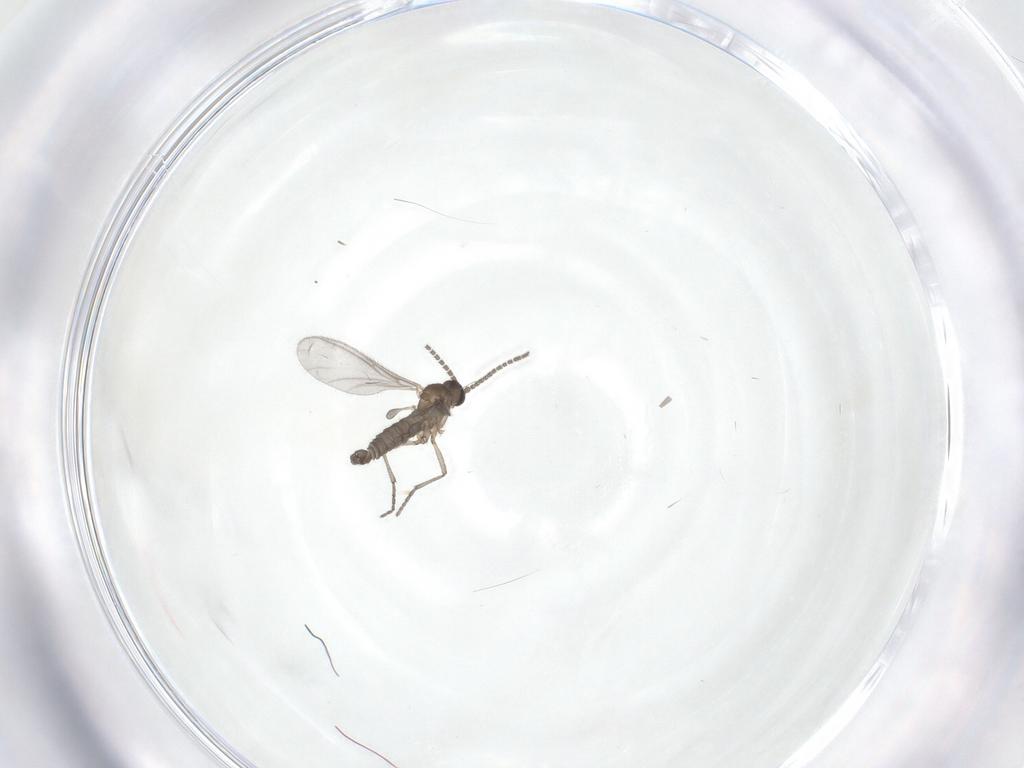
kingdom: Animalia
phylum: Arthropoda
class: Insecta
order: Diptera
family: Sciaridae
